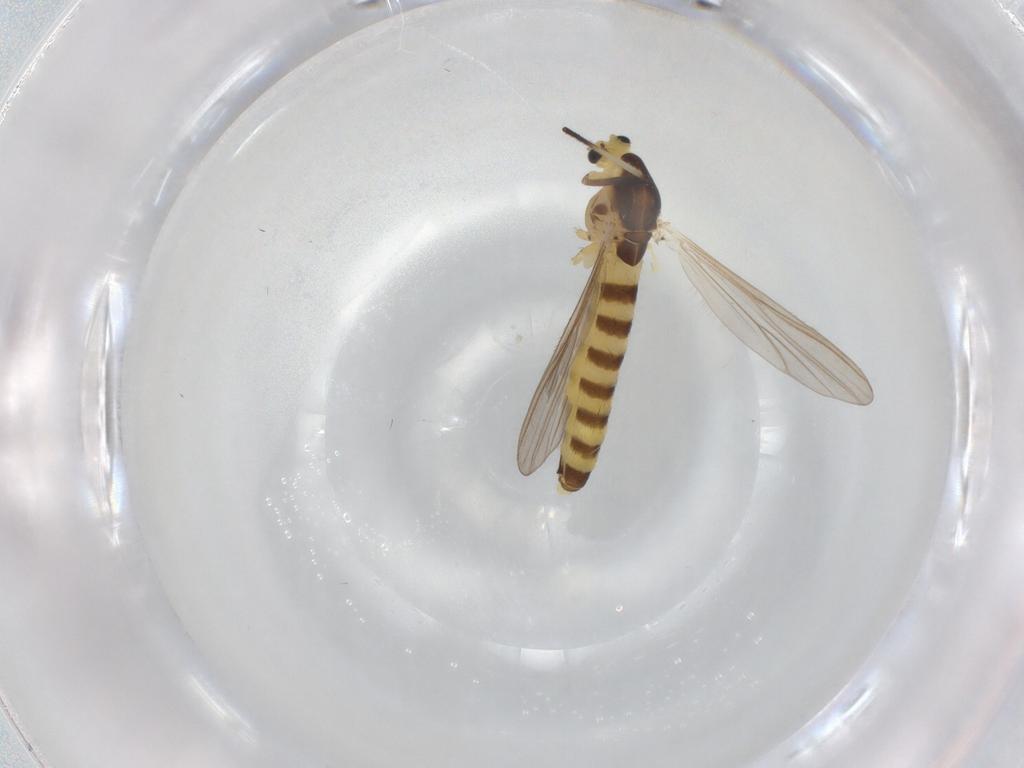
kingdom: Animalia
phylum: Arthropoda
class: Insecta
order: Diptera
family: Chironomidae
